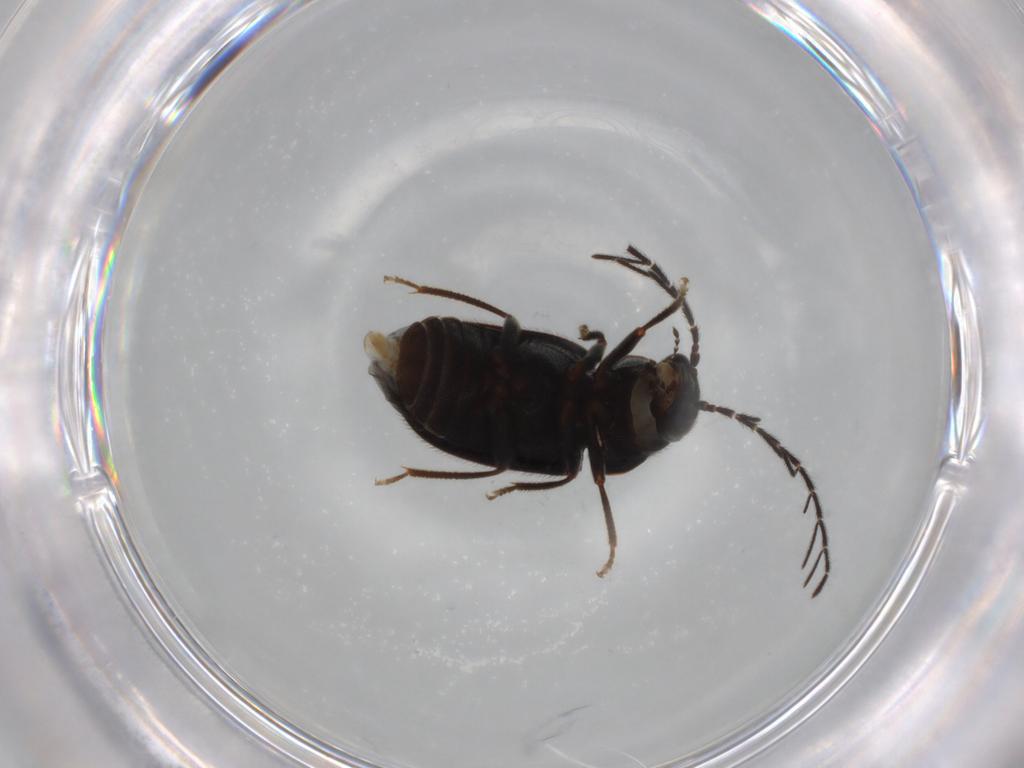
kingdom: Animalia
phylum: Arthropoda
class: Insecta
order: Coleoptera
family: Ptilodactylidae
